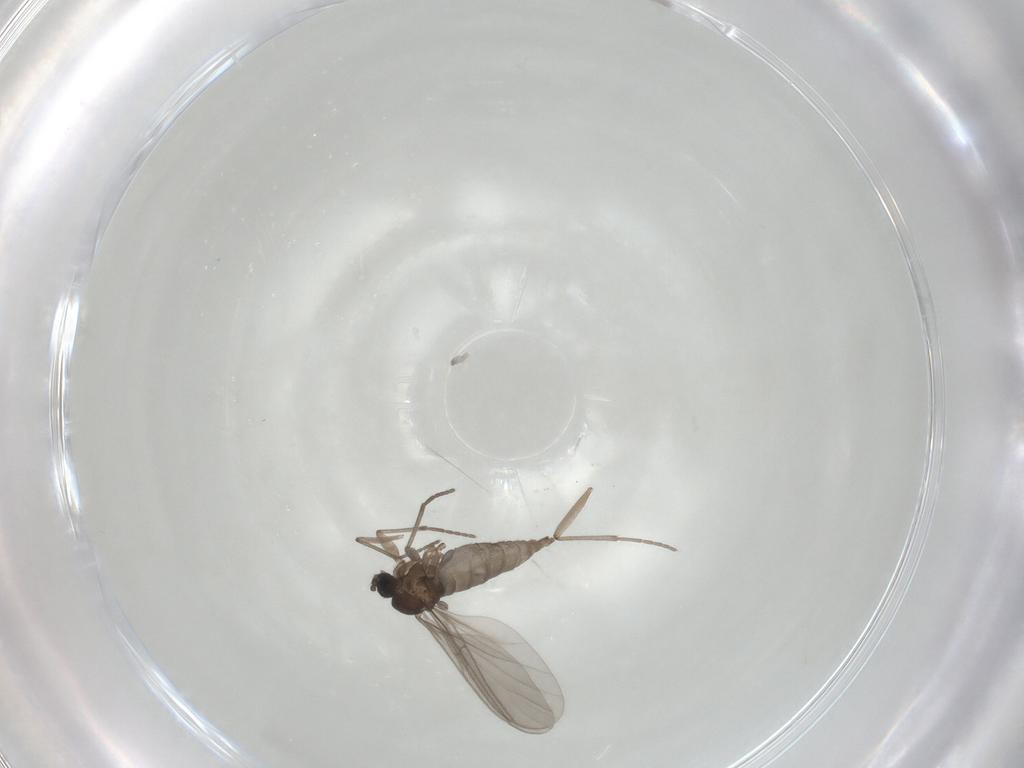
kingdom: Animalia
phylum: Arthropoda
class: Insecta
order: Diptera
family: Sciaridae
